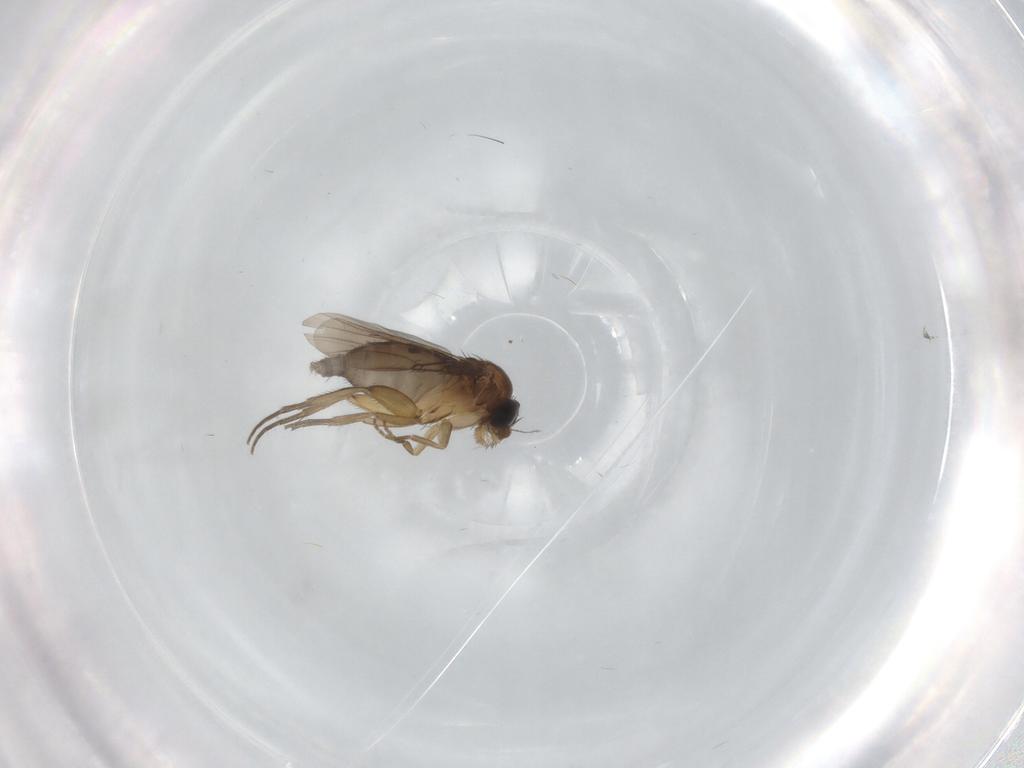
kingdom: Animalia
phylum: Arthropoda
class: Insecta
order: Diptera
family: Phoridae
